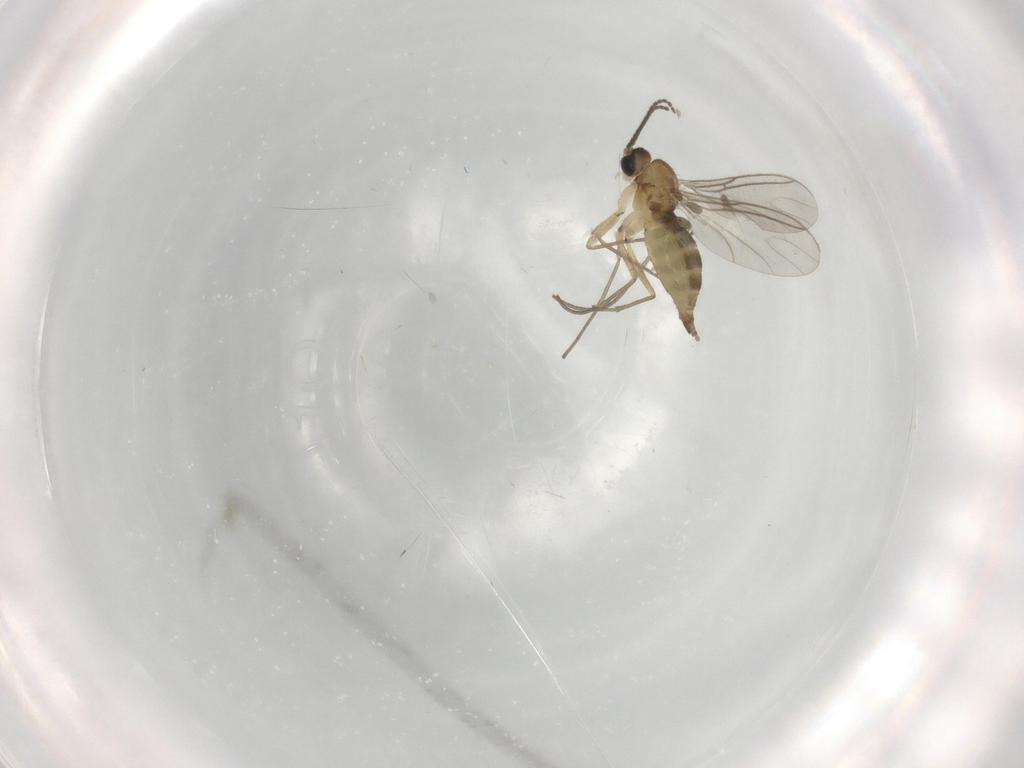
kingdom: Animalia
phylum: Arthropoda
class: Insecta
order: Diptera
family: Sciaridae
